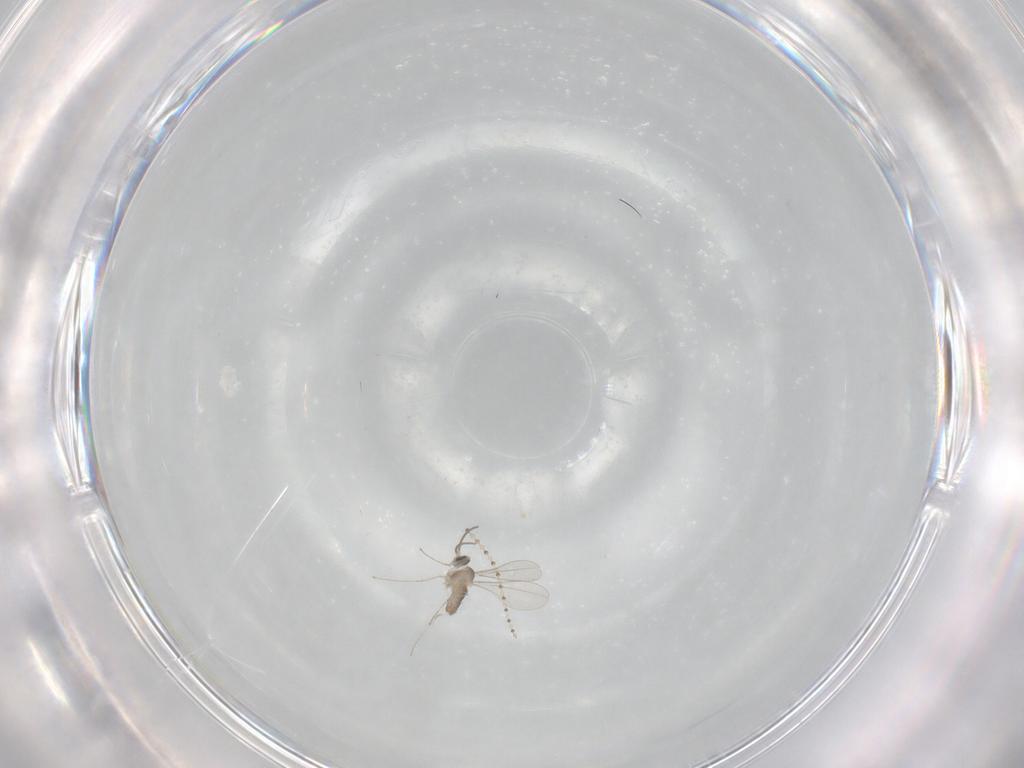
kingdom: Animalia
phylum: Arthropoda
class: Insecta
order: Diptera
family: Cecidomyiidae
